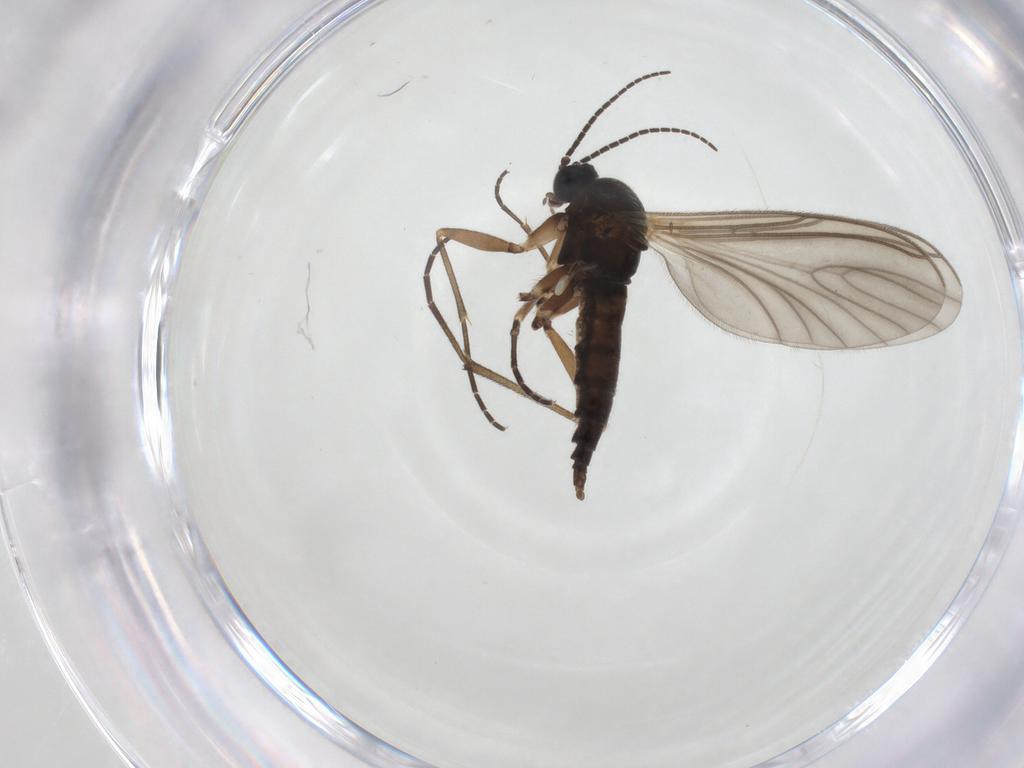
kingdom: Animalia
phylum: Arthropoda
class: Insecta
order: Diptera
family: Sciaridae
